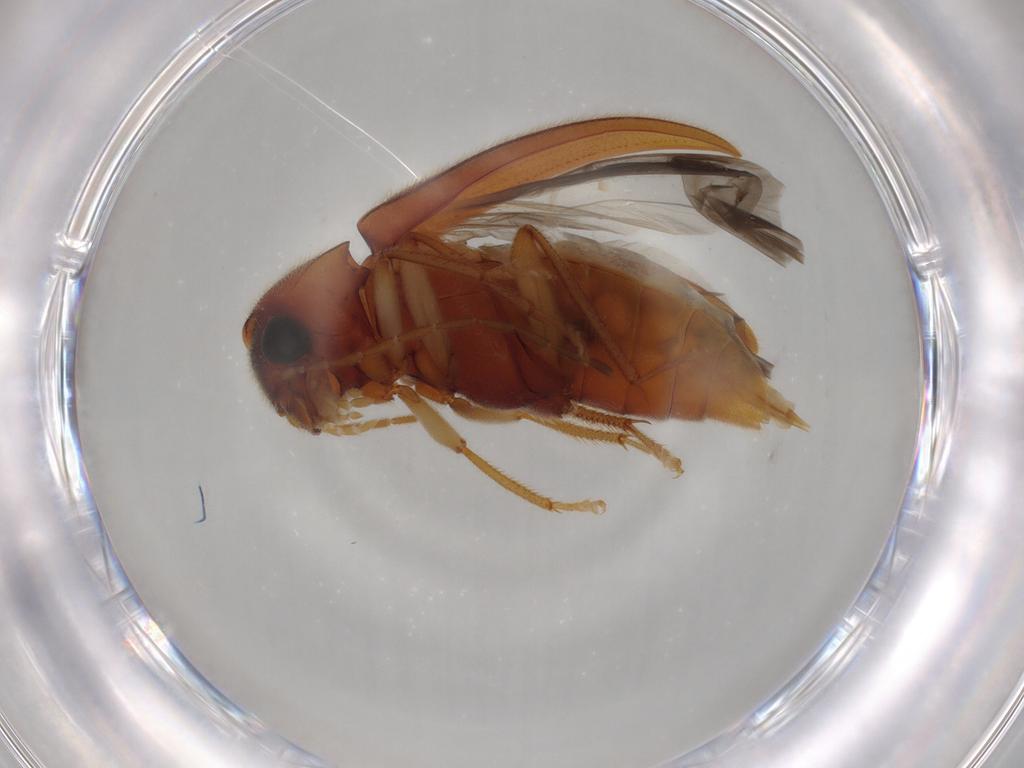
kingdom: Animalia
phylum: Arthropoda
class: Insecta
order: Coleoptera
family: Ptilodactylidae
